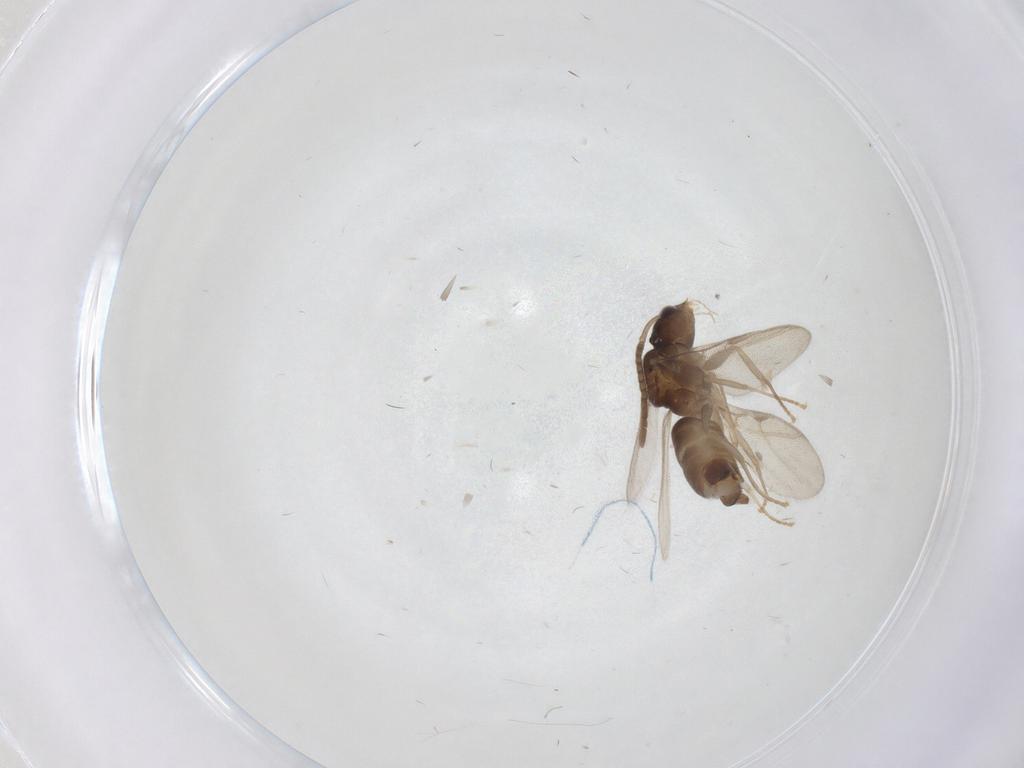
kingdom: Animalia
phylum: Arthropoda
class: Insecta
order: Hymenoptera
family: Formicidae
